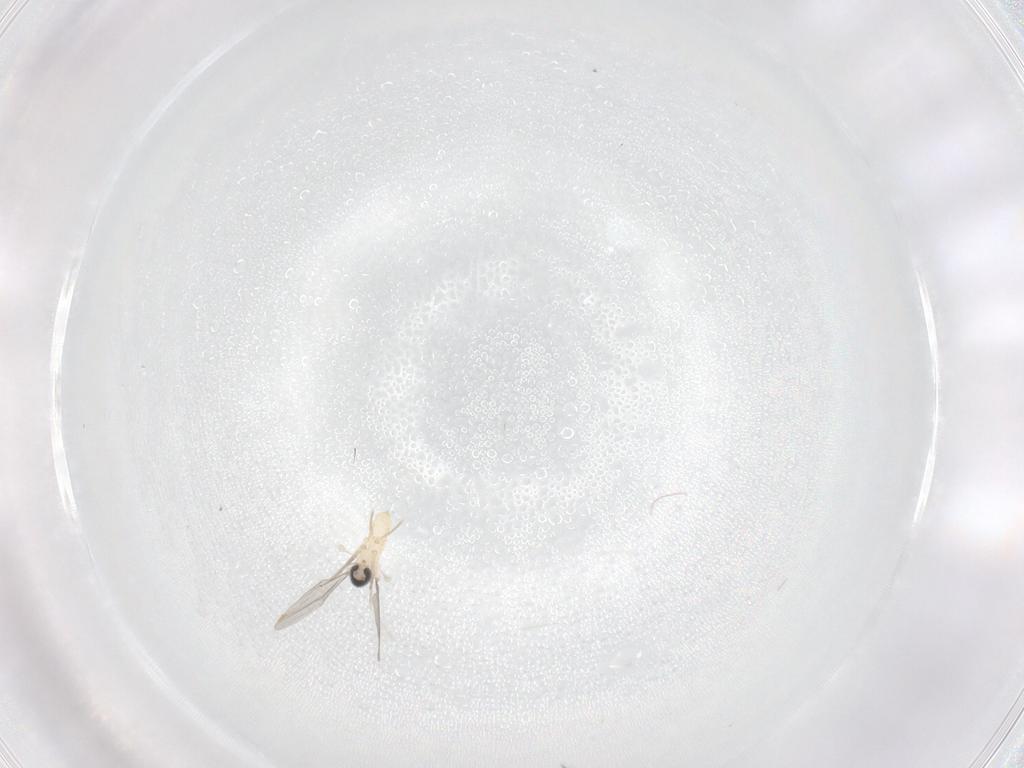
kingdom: Animalia
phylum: Arthropoda
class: Insecta
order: Diptera
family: Cecidomyiidae
